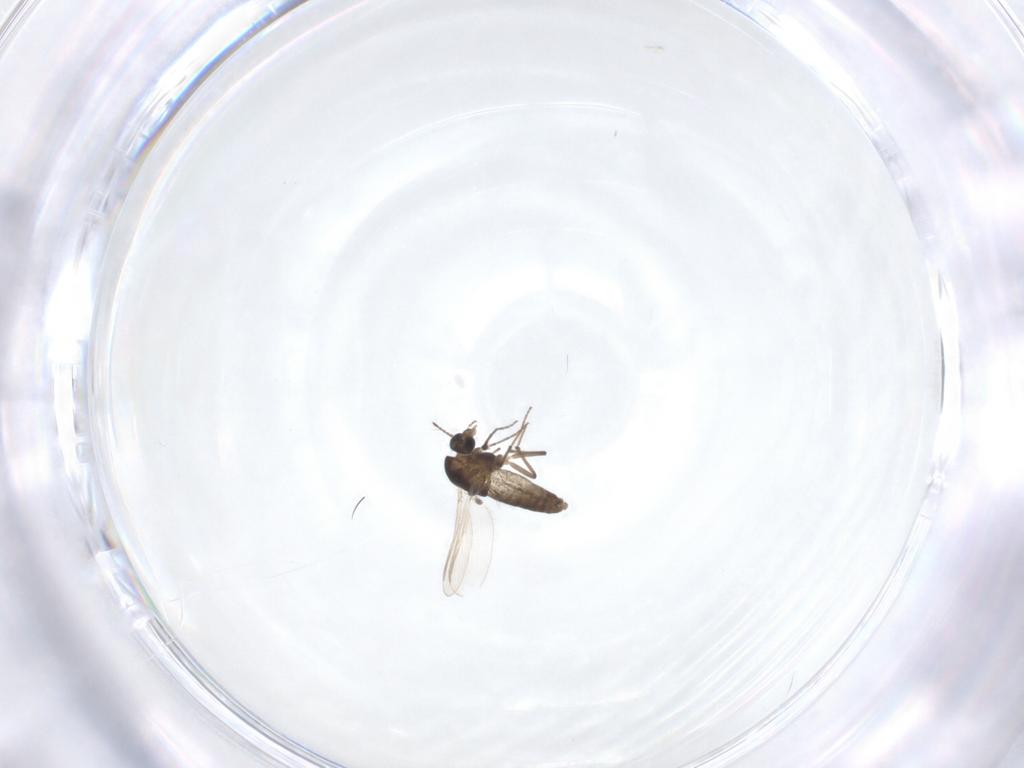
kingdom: Animalia
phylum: Arthropoda
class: Insecta
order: Diptera
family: Chironomidae
